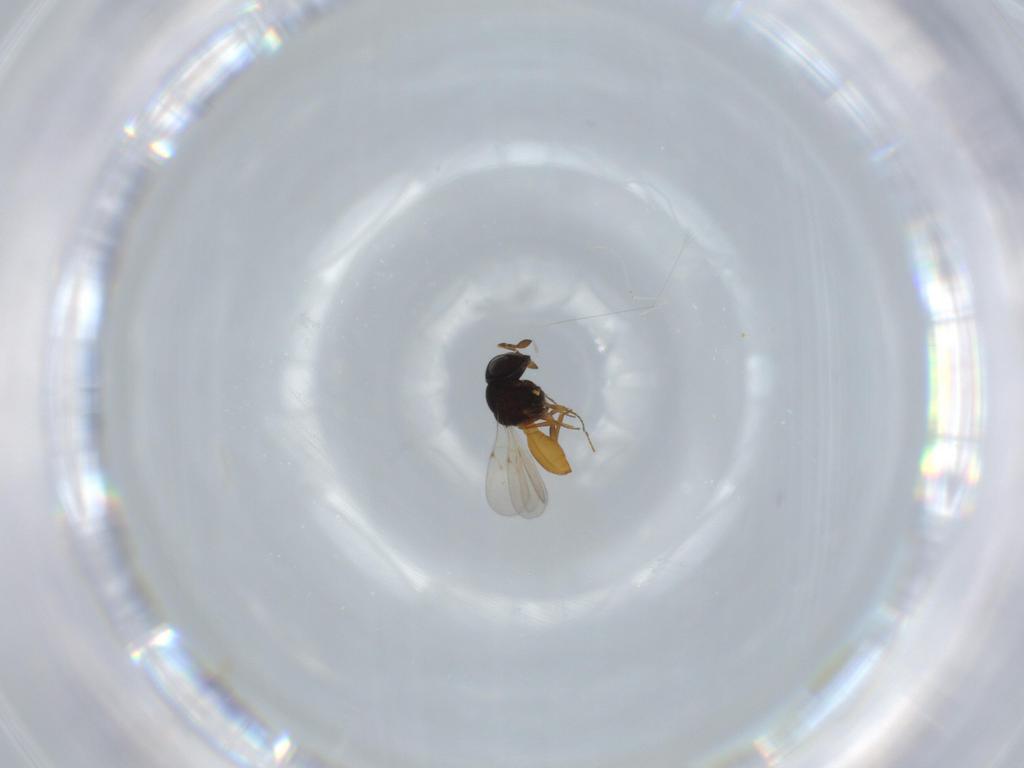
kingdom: Animalia
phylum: Arthropoda
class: Insecta
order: Hymenoptera
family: Scelionidae
